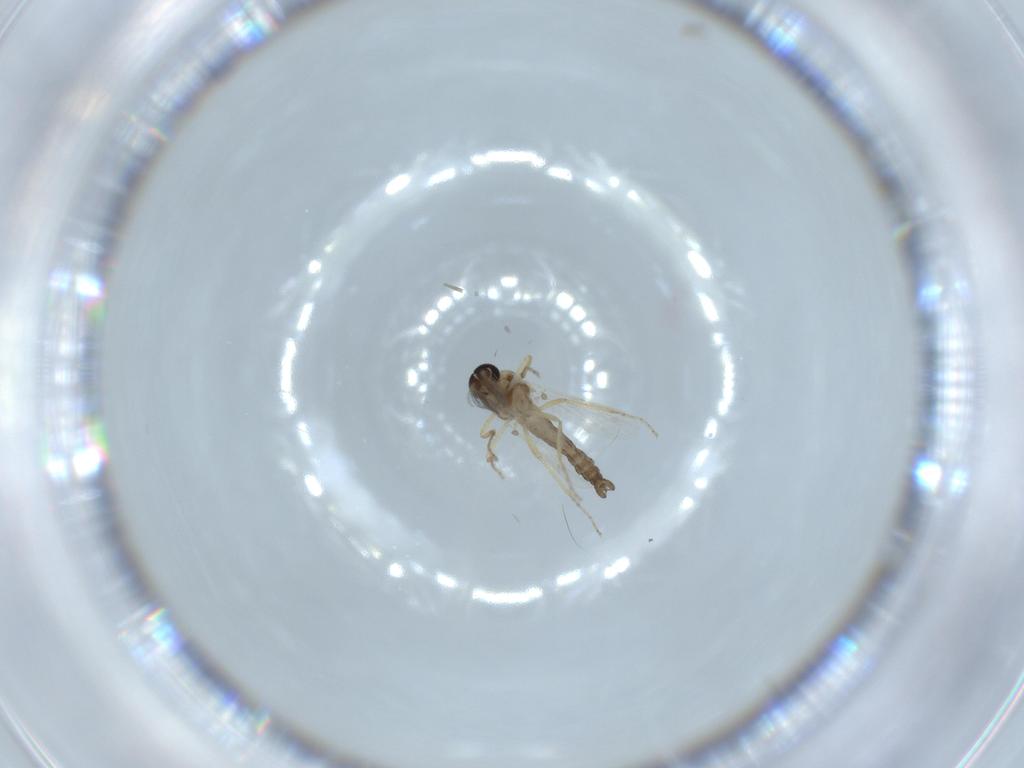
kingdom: Animalia
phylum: Arthropoda
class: Insecta
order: Diptera
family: Ceratopogonidae
